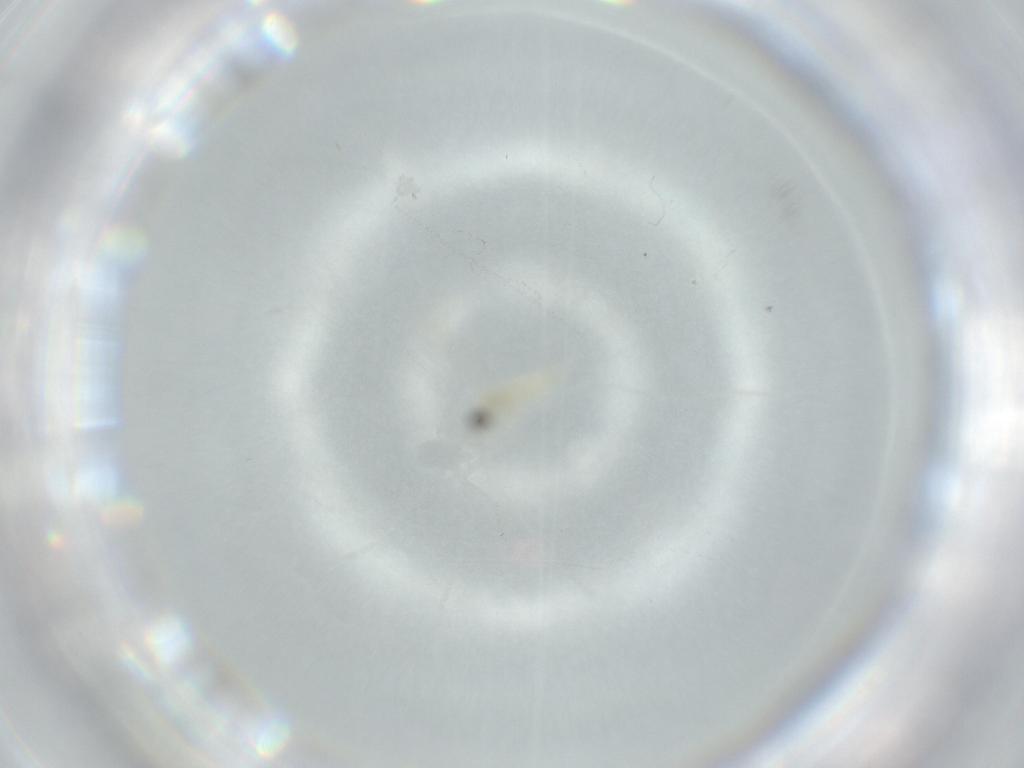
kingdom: Animalia
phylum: Arthropoda
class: Insecta
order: Diptera
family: Cecidomyiidae
